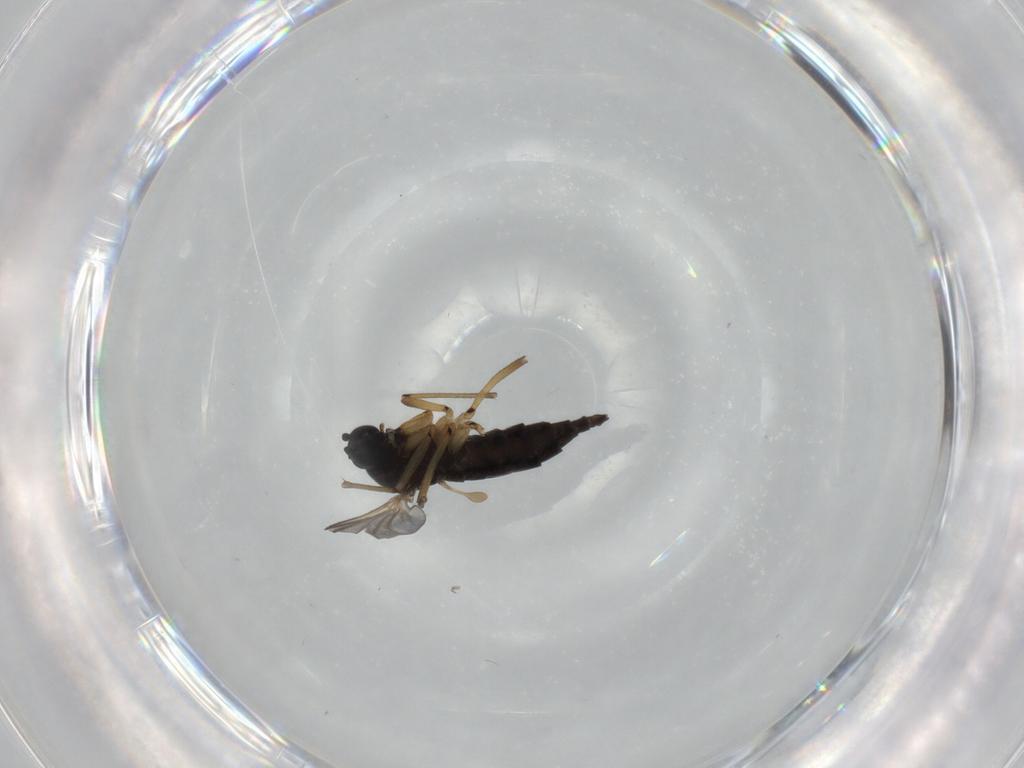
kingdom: Animalia
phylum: Arthropoda
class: Insecta
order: Diptera
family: Sciaridae
